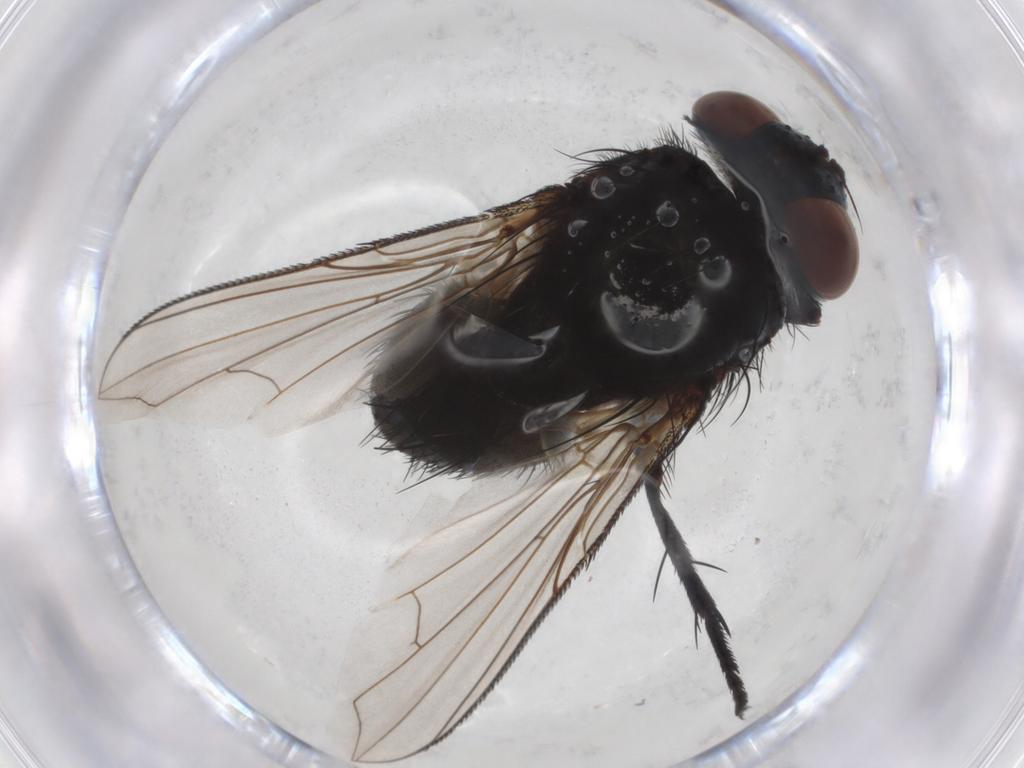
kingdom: Animalia
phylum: Arthropoda
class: Insecta
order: Diptera
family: Tachinidae
